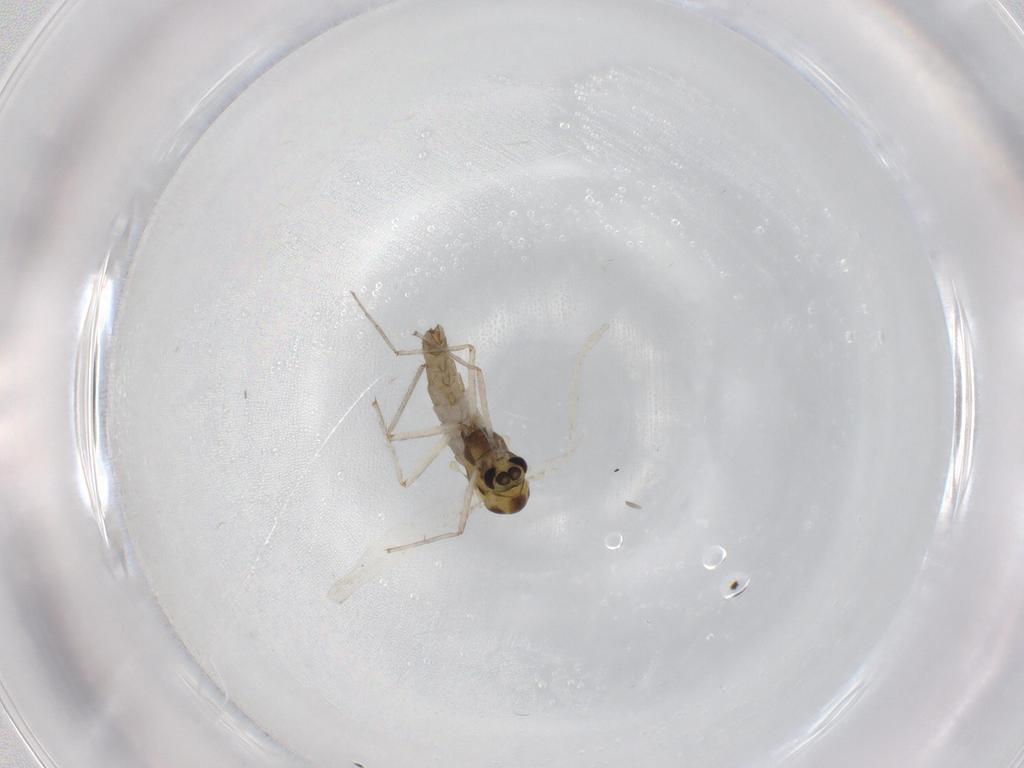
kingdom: Animalia
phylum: Arthropoda
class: Insecta
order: Diptera
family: Chironomidae
